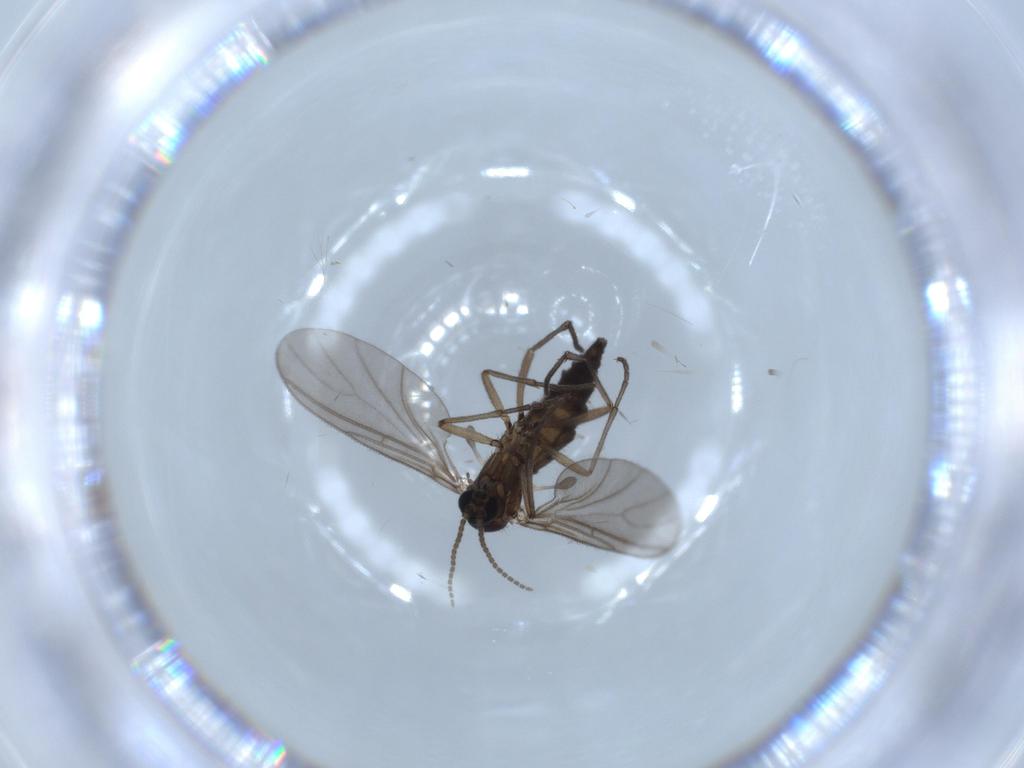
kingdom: Animalia
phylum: Arthropoda
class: Insecta
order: Diptera
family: Sciaridae
